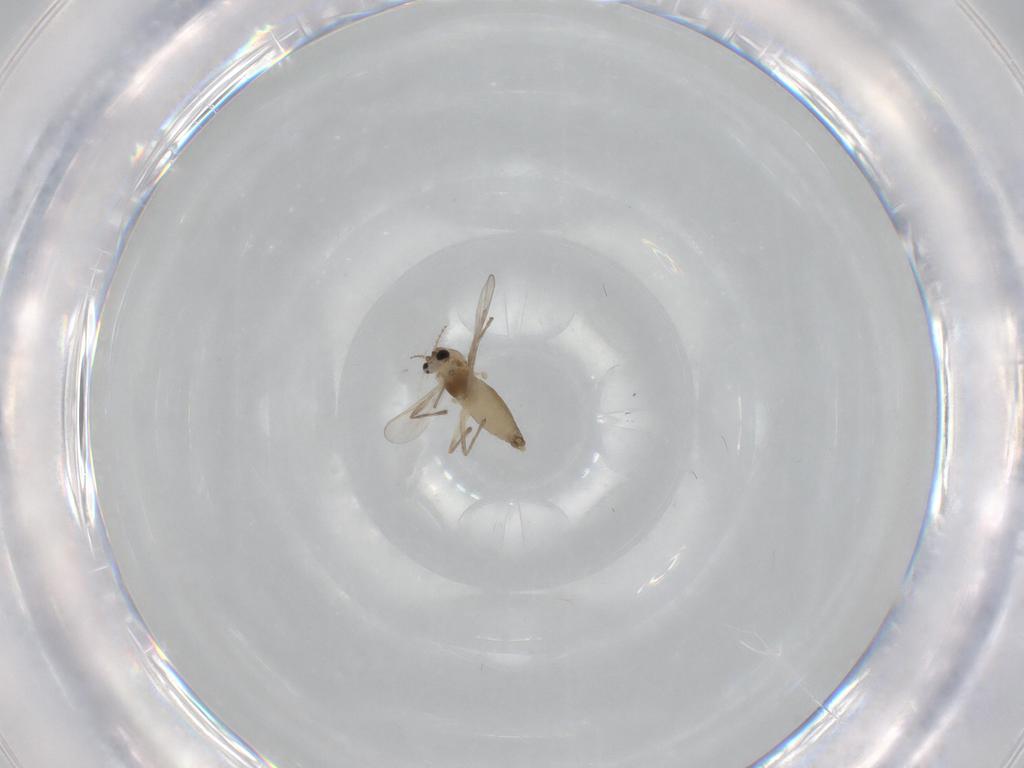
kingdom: Animalia
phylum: Arthropoda
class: Insecta
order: Diptera
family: Chironomidae
